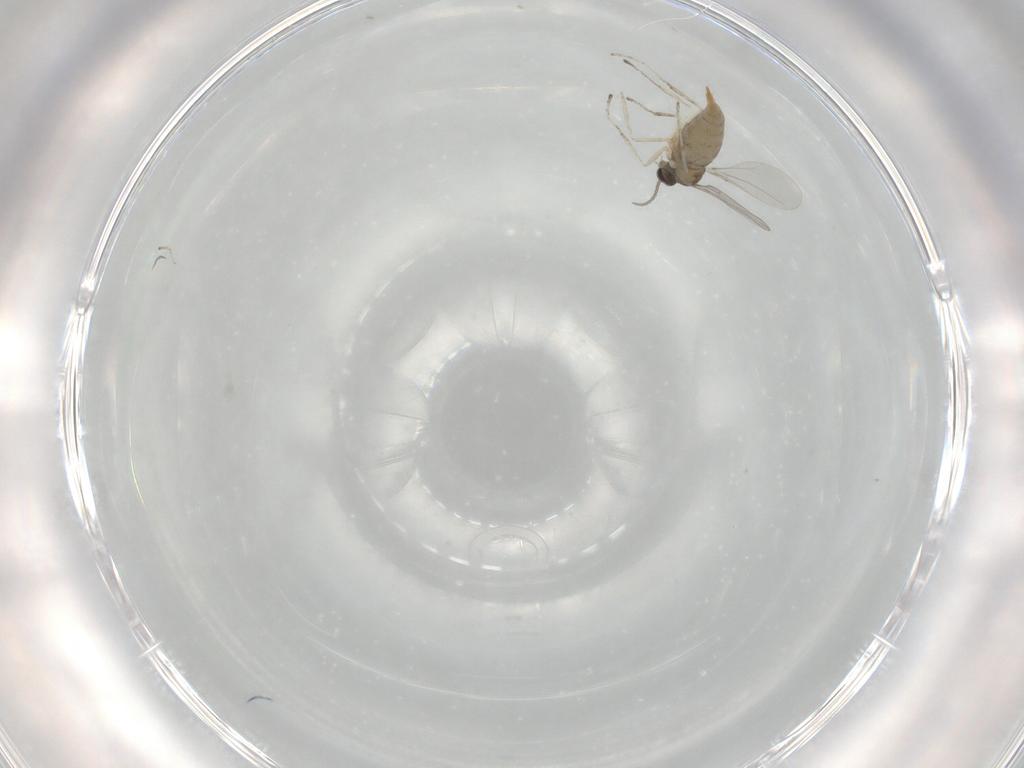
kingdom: Animalia
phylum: Arthropoda
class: Insecta
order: Diptera
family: Cecidomyiidae
